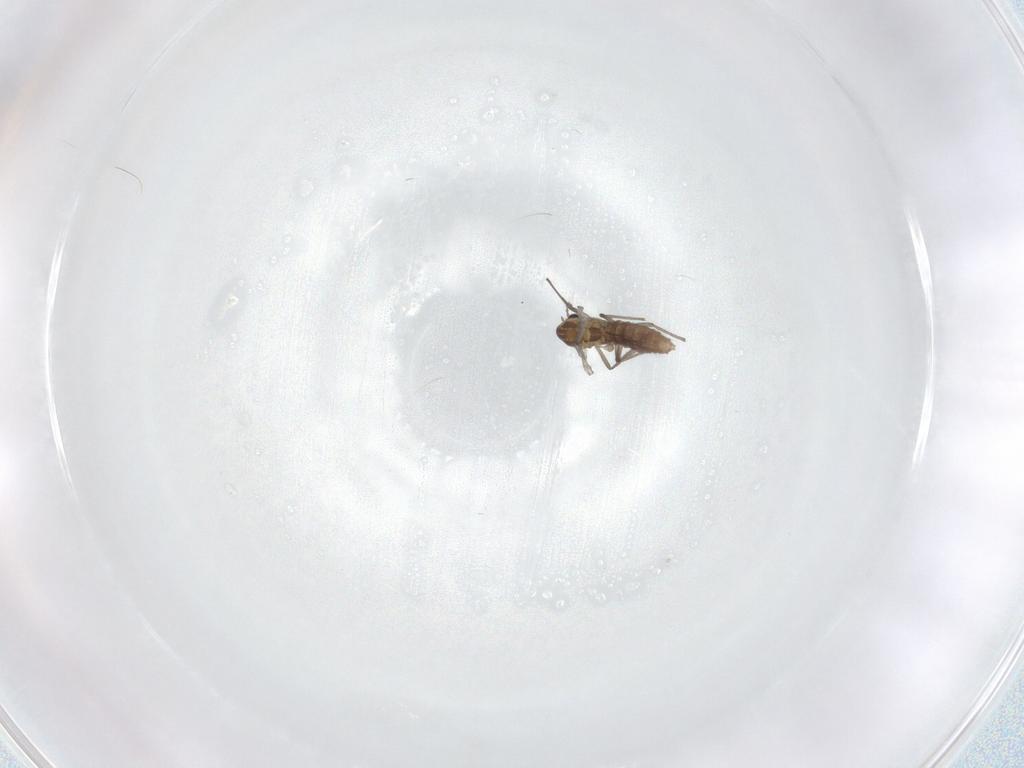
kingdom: Animalia
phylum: Arthropoda
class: Insecta
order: Diptera
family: Chironomidae
